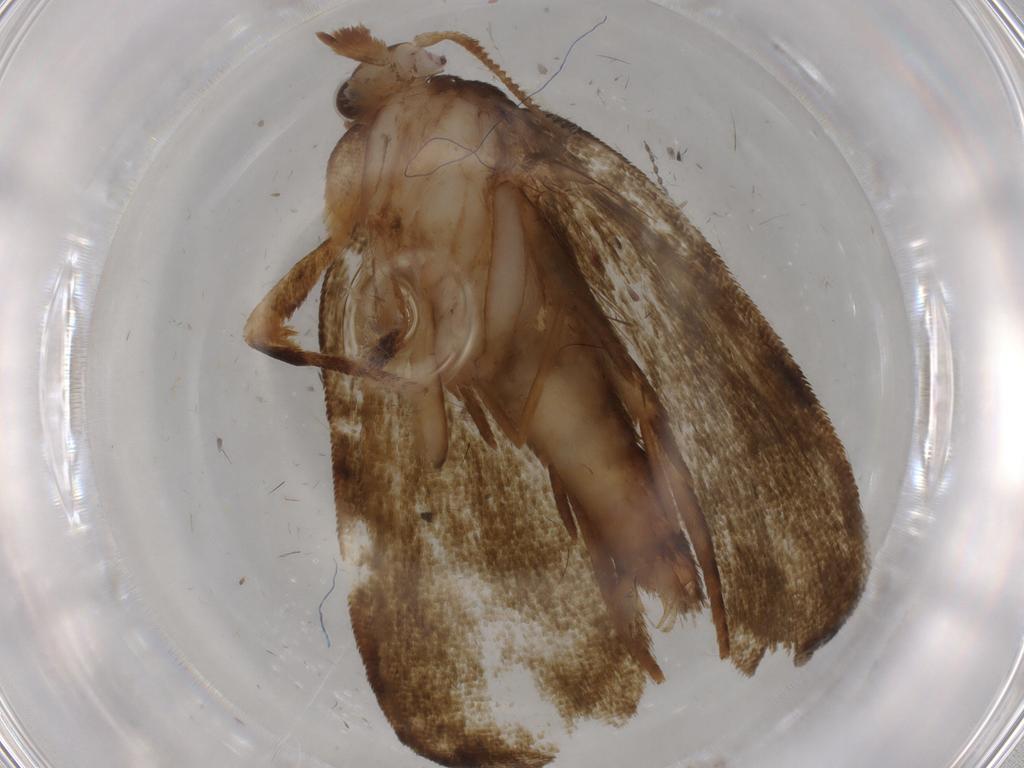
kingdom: Animalia
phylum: Arthropoda
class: Insecta
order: Lepidoptera
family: Geometridae
